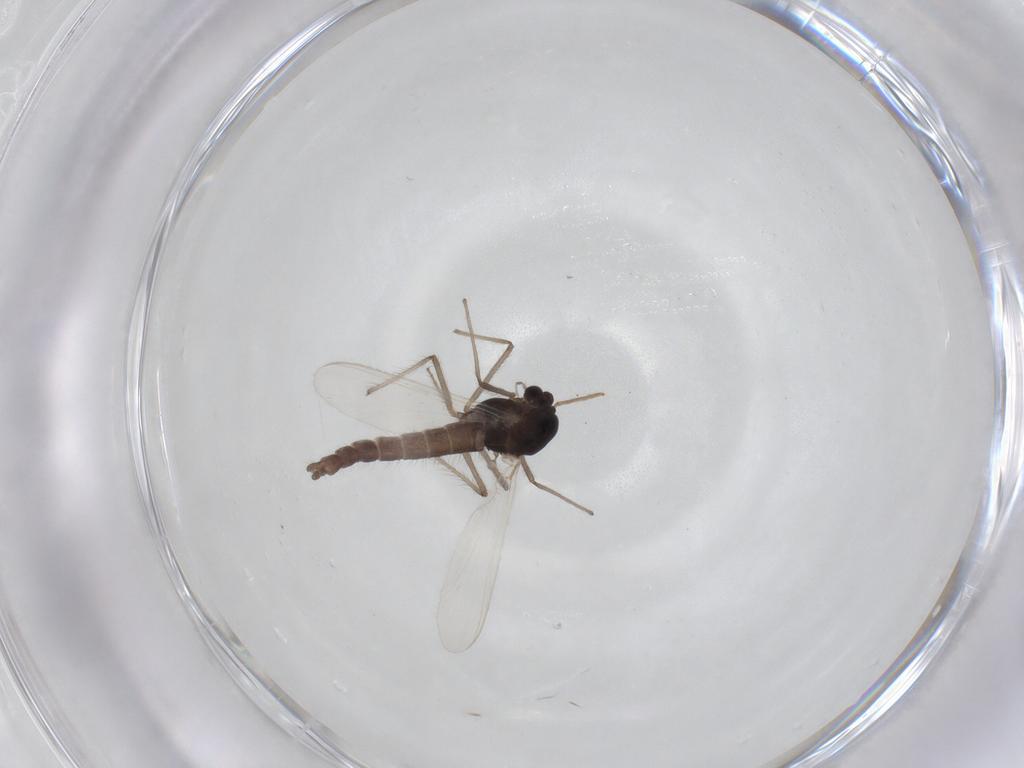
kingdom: Animalia
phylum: Arthropoda
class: Insecta
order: Diptera
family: Chironomidae
